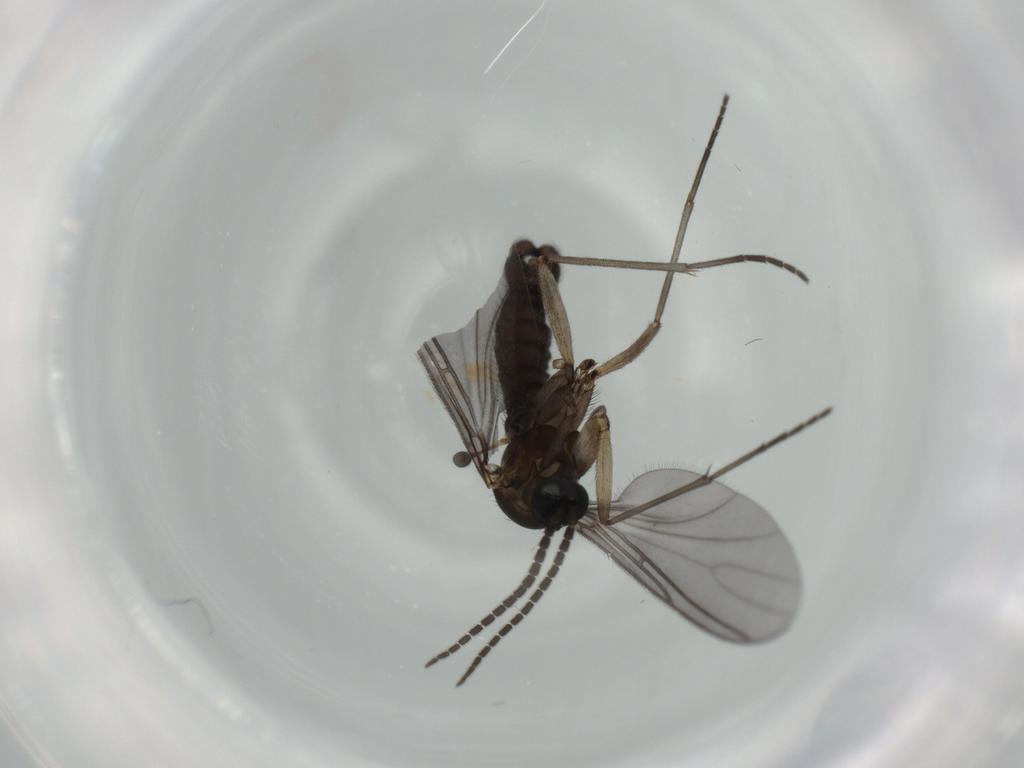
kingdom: Animalia
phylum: Arthropoda
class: Insecta
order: Diptera
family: Sciaridae
